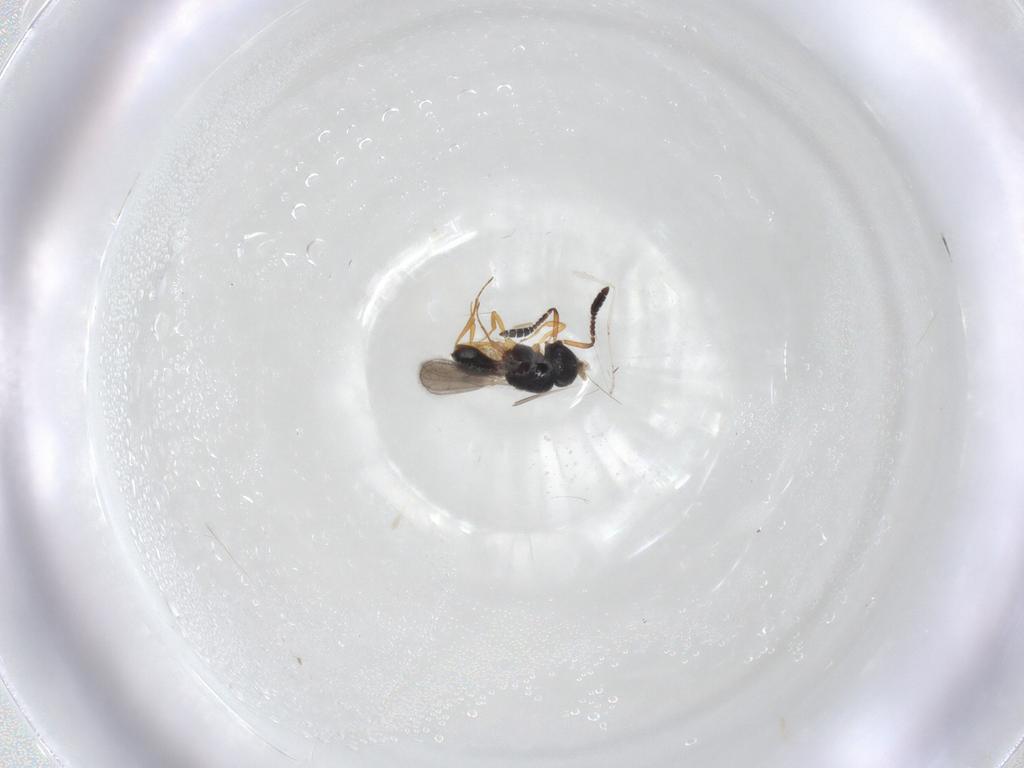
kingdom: Animalia
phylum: Arthropoda
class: Insecta
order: Hymenoptera
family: Scelionidae
